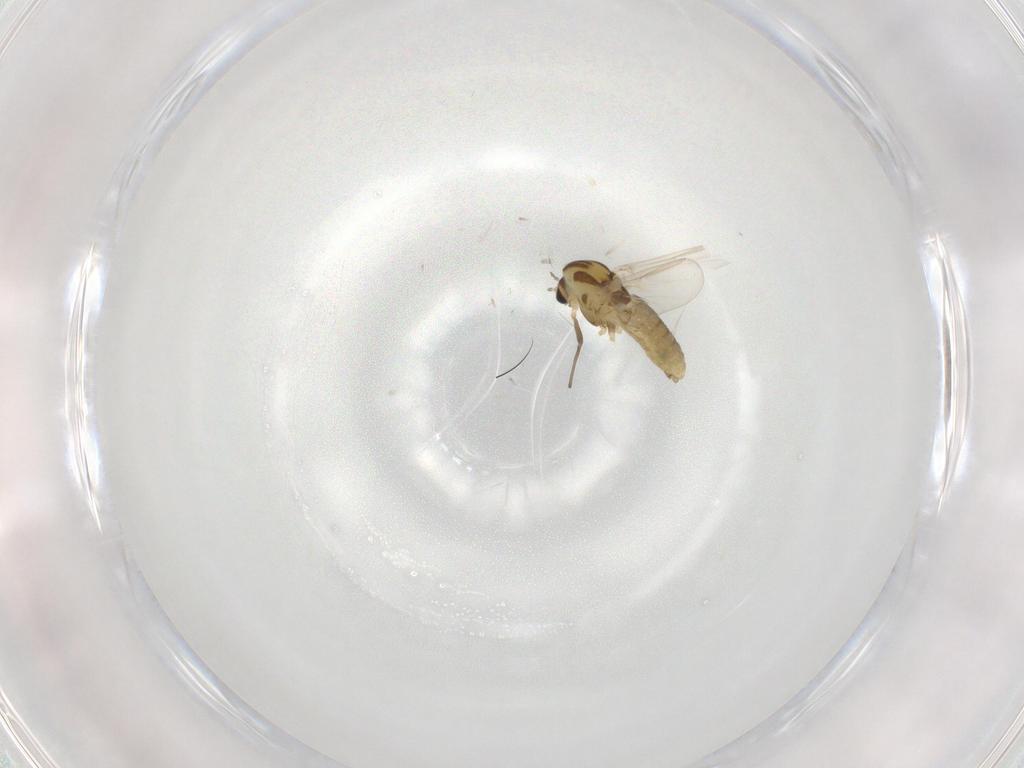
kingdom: Animalia
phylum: Arthropoda
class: Insecta
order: Diptera
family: Chironomidae
